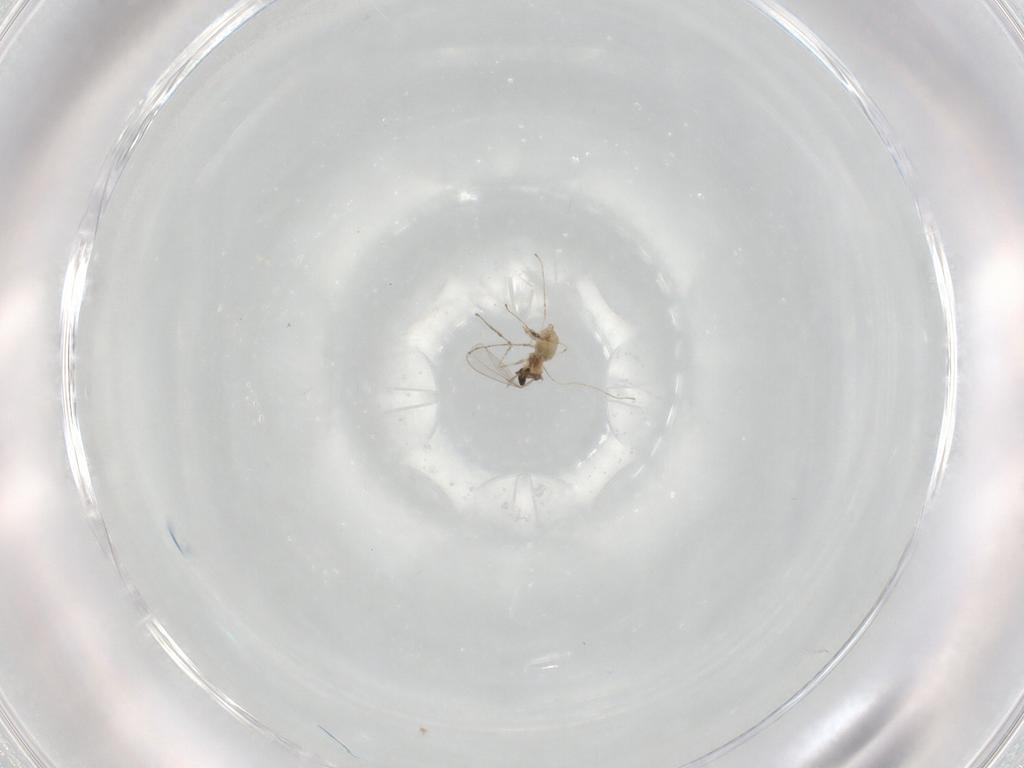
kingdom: Animalia
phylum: Arthropoda
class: Insecta
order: Diptera
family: Cecidomyiidae
